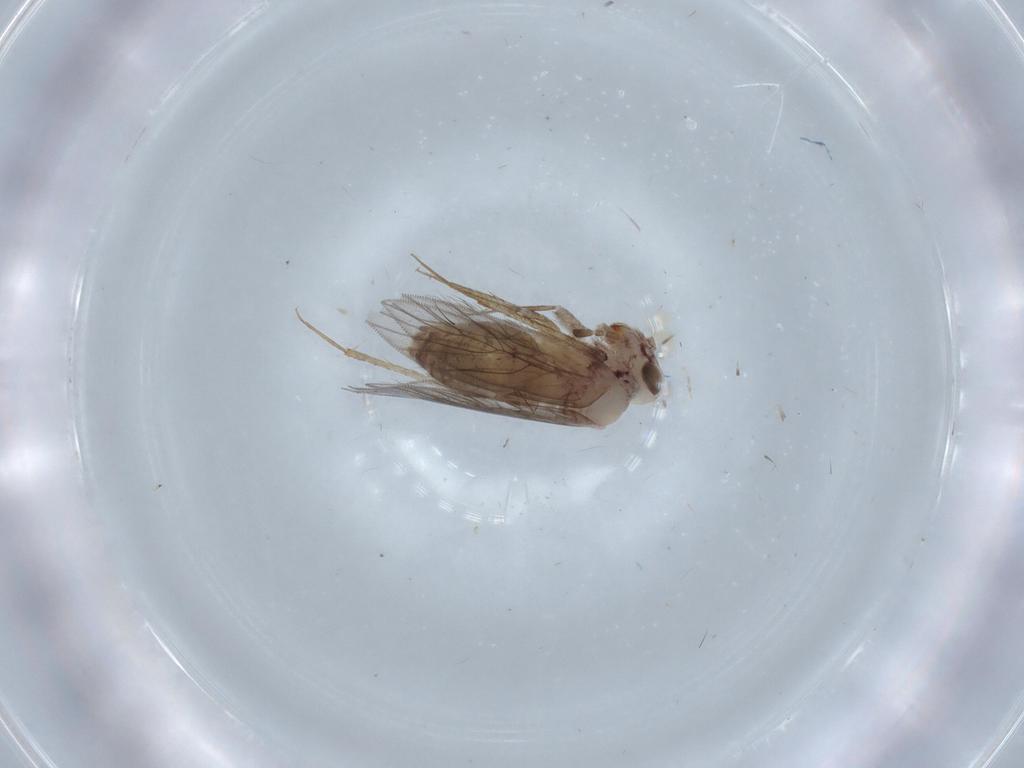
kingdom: Animalia
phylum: Arthropoda
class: Insecta
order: Psocodea
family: Lepidopsocidae
